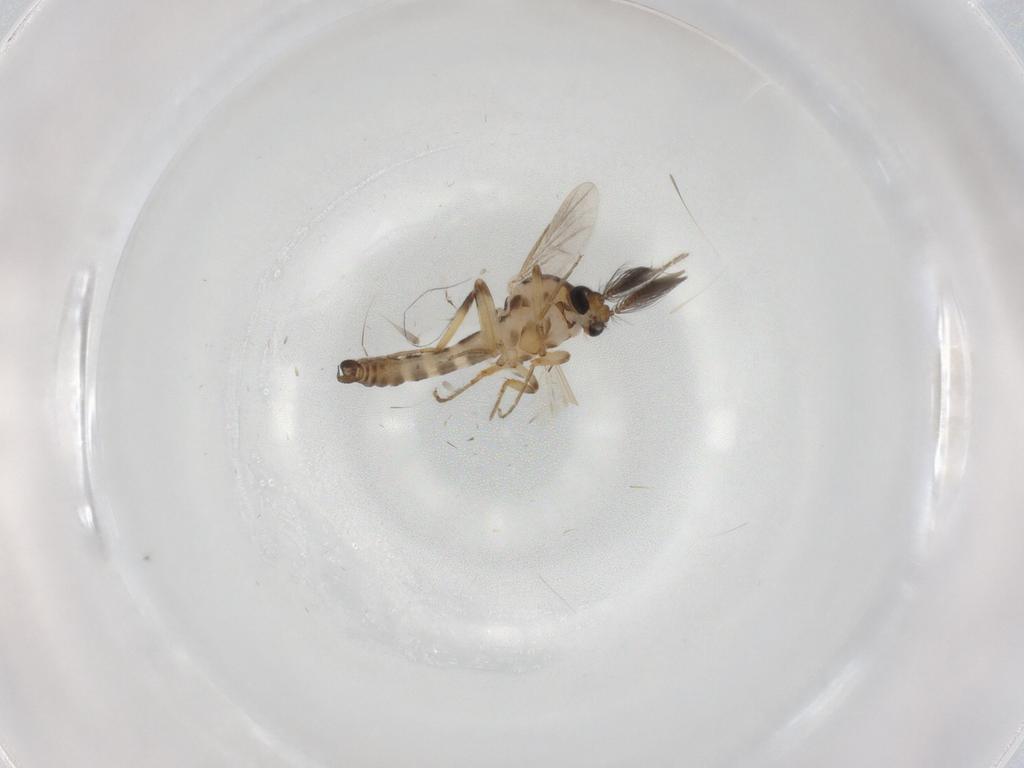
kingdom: Animalia
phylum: Arthropoda
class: Insecta
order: Diptera
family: Ceratopogonidae
